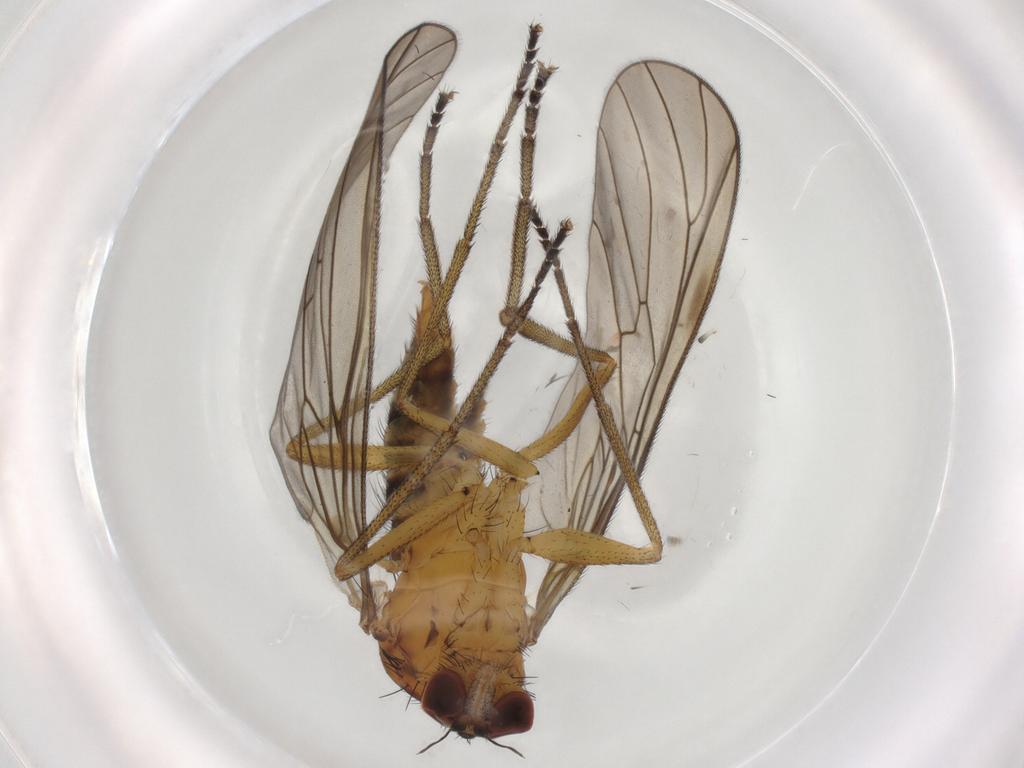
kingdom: Animalia
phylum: Arthropoda
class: Insecta
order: Diptera
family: Brachystomatidae
